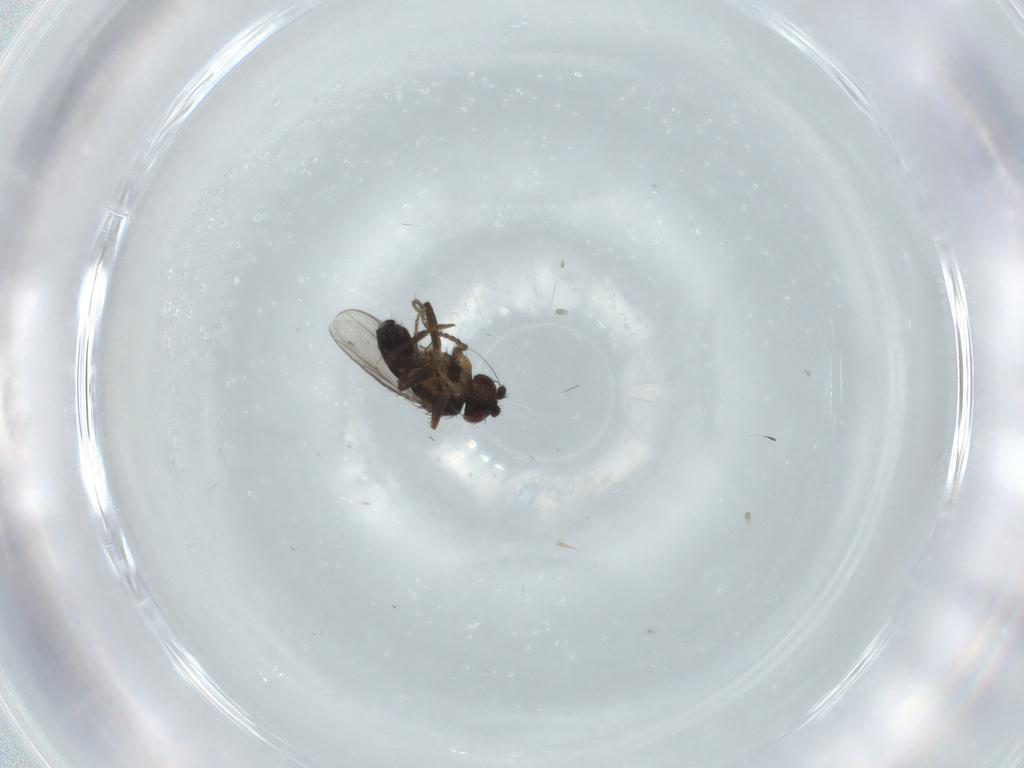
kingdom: Animalia
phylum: Arthropoda
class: Insecta
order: Diptera
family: Sphaeroceridae
